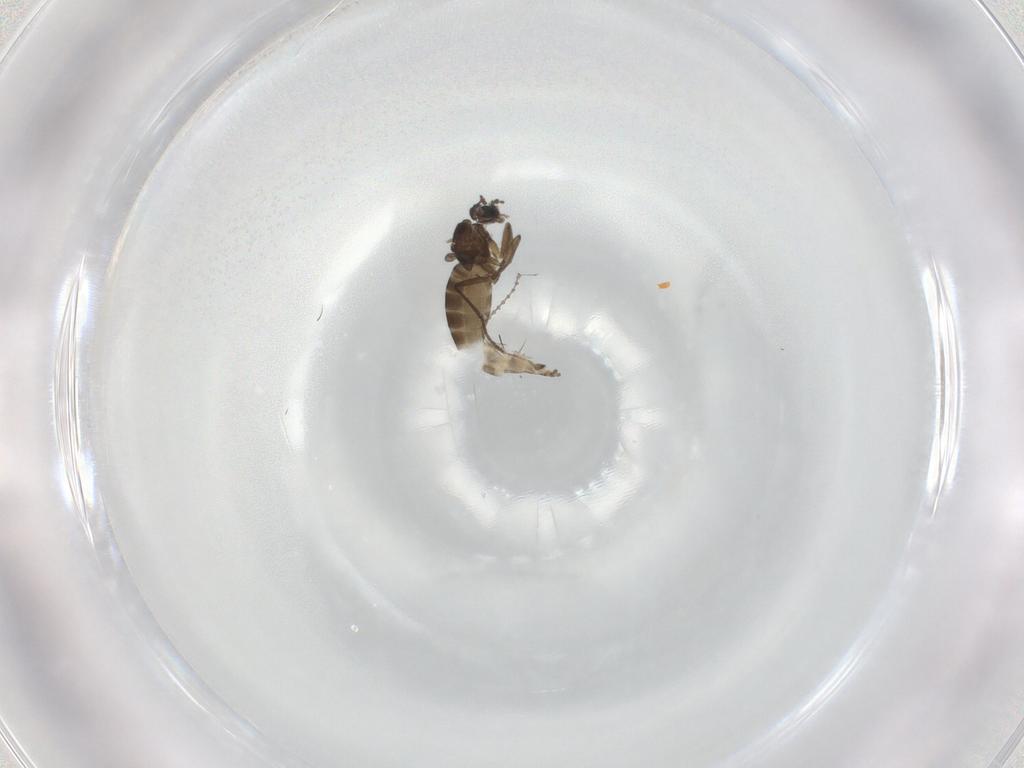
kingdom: Animalia
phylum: Arthropoda
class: Insecta
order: Diptera
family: Sciaridae
